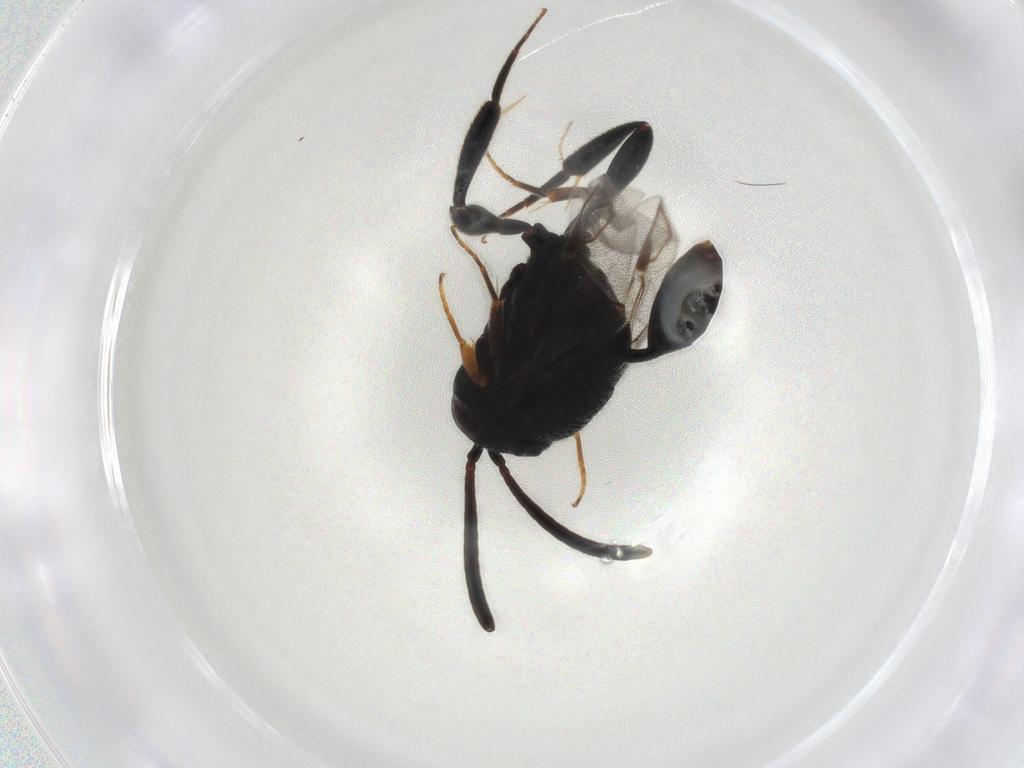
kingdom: Animalia
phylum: Arthropoda
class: Insecta
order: Hymenoptera
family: Evaniidae
